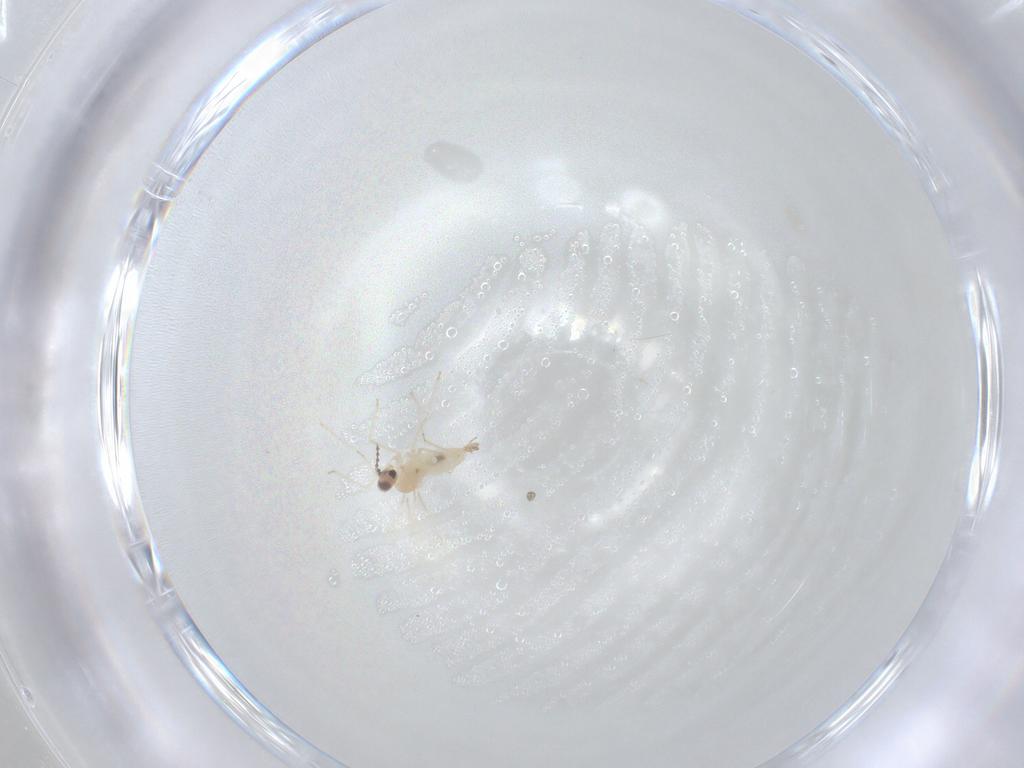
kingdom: Animalia
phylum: Arthropoda
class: Insecta
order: Diptera
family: Cecidomyiidae
